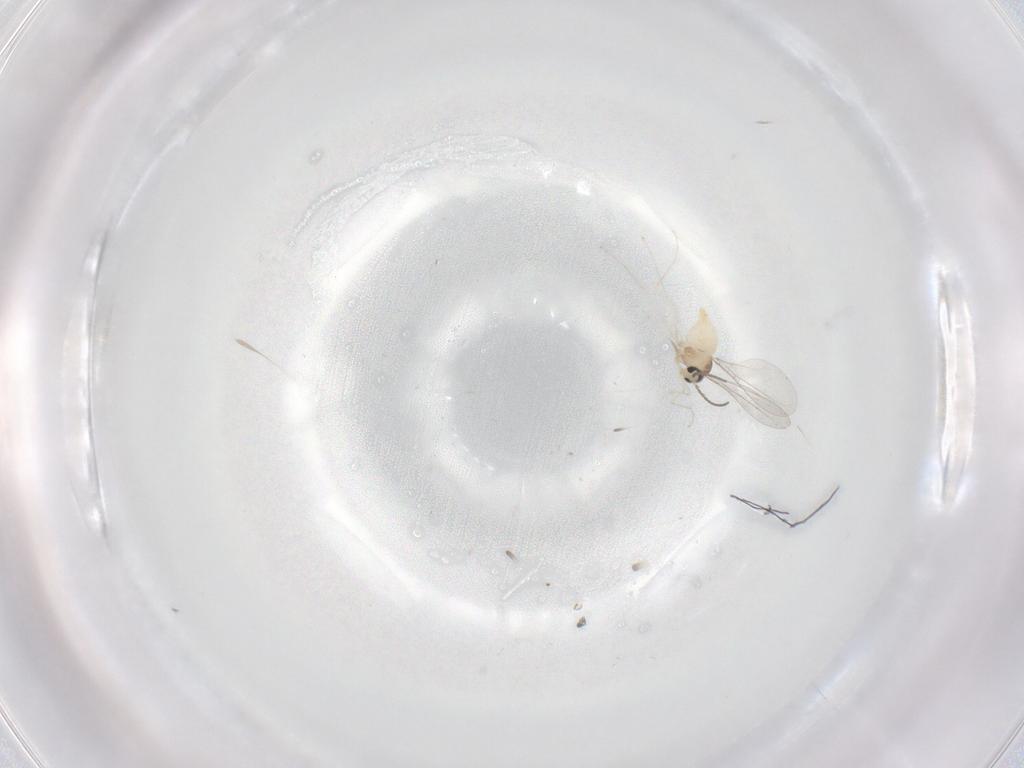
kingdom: Animalia
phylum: Arthropoda
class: Insecta
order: Diptera
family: Cecidomyiidae
